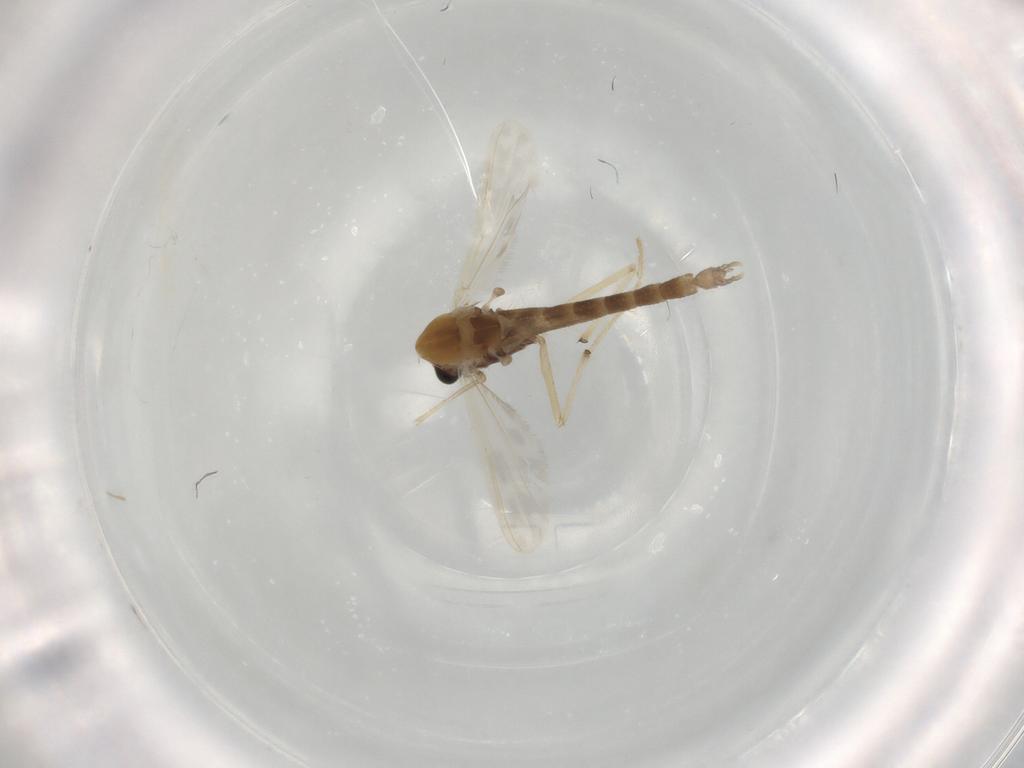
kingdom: Animalia
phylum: Arthropoda
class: Insecta
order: Diptera
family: Chironomidae
